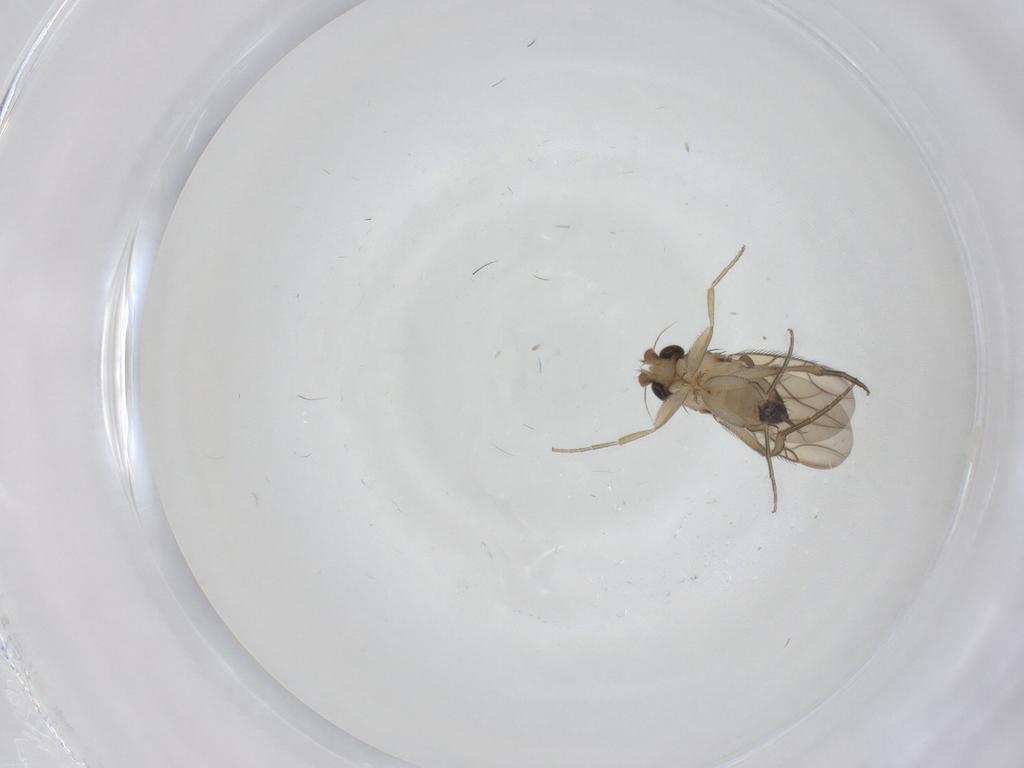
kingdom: Animalia
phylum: Arthropoda
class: Insecta
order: Diptera
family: Phoridae
